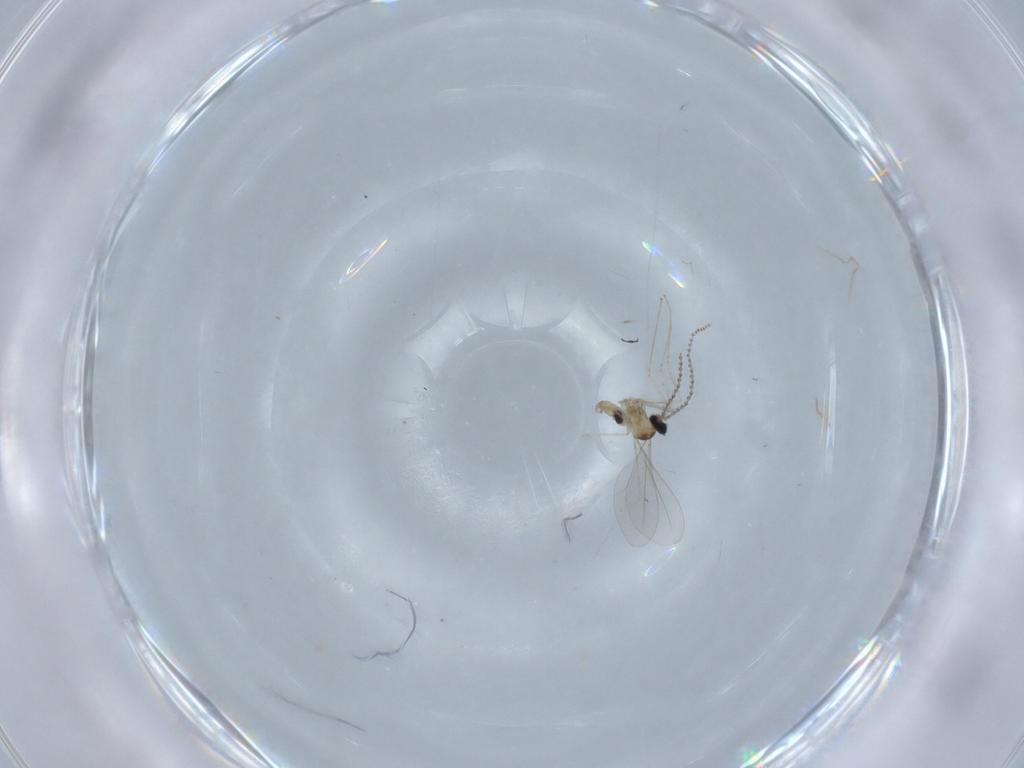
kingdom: Animalia
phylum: Arthropoda
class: Insecta
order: Diptera
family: Cecidomyiidae
